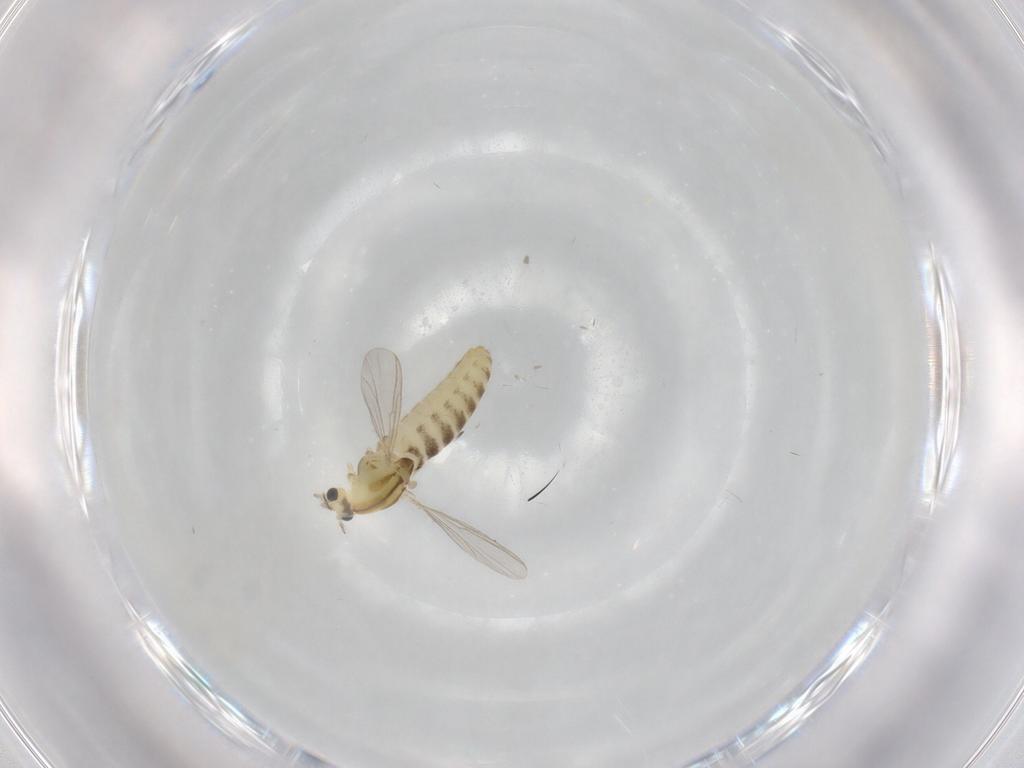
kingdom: Animalia
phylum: Arthropoda
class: Insecta
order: Diptera
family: Chironomidae
